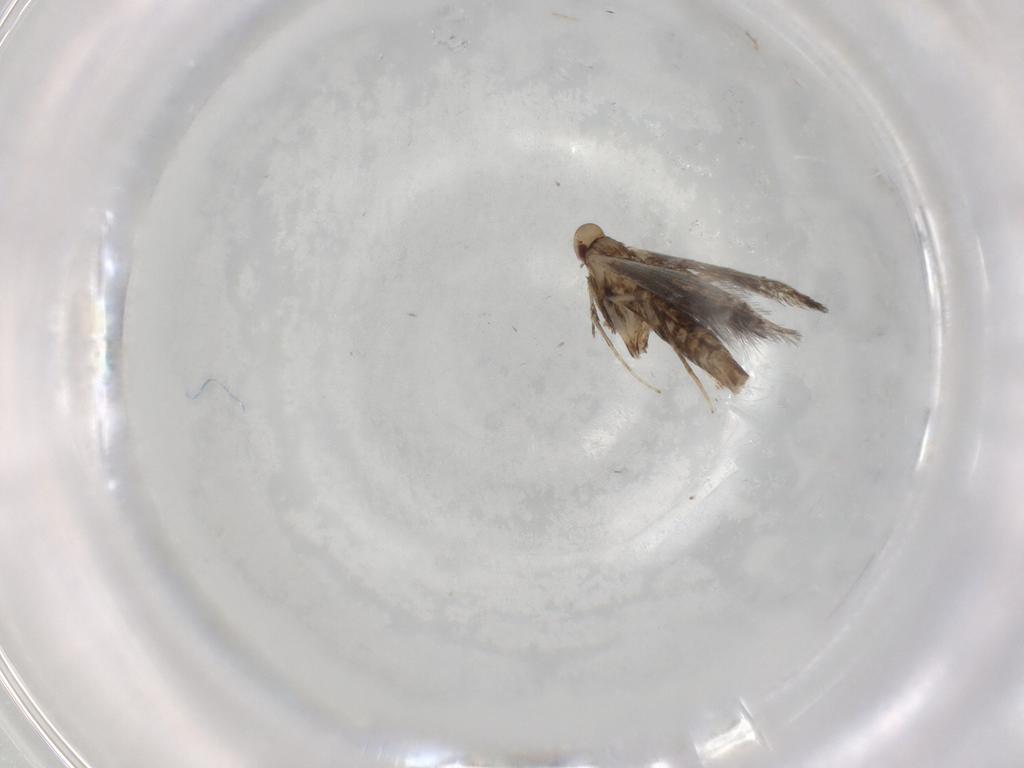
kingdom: Animalia
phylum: Arthropoda
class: Insecta
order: Lepidoptera
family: Gracillariidae
